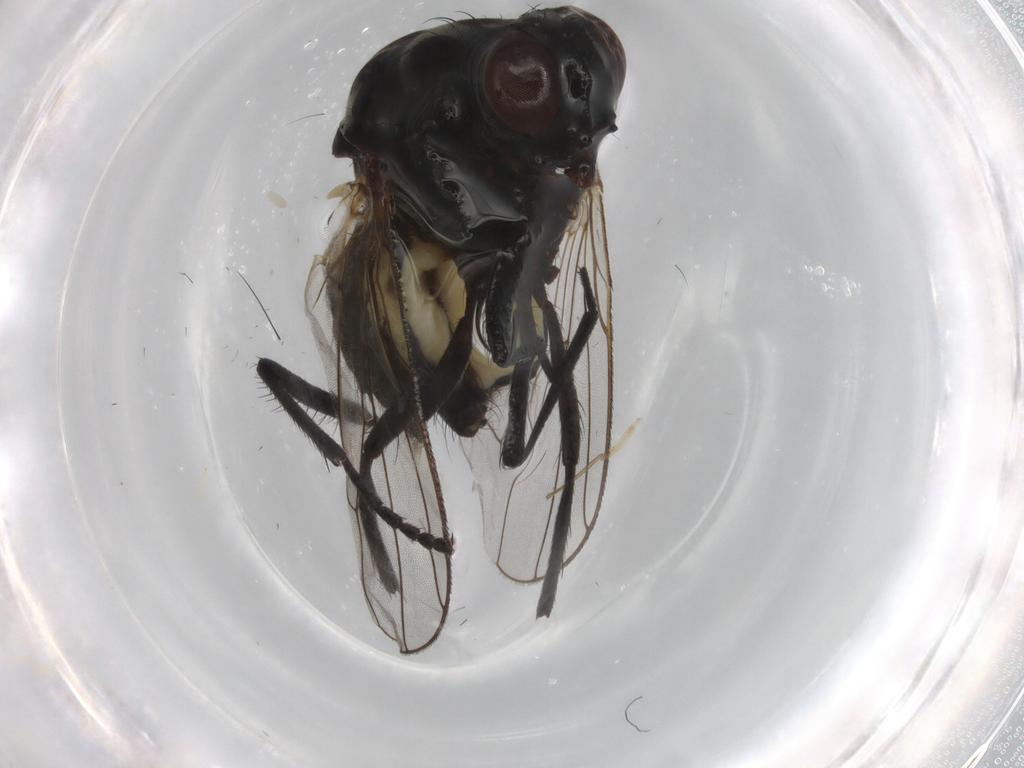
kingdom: Animalia
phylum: Arthropoda
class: Insecta
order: Diptera
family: Anthomyiidae
